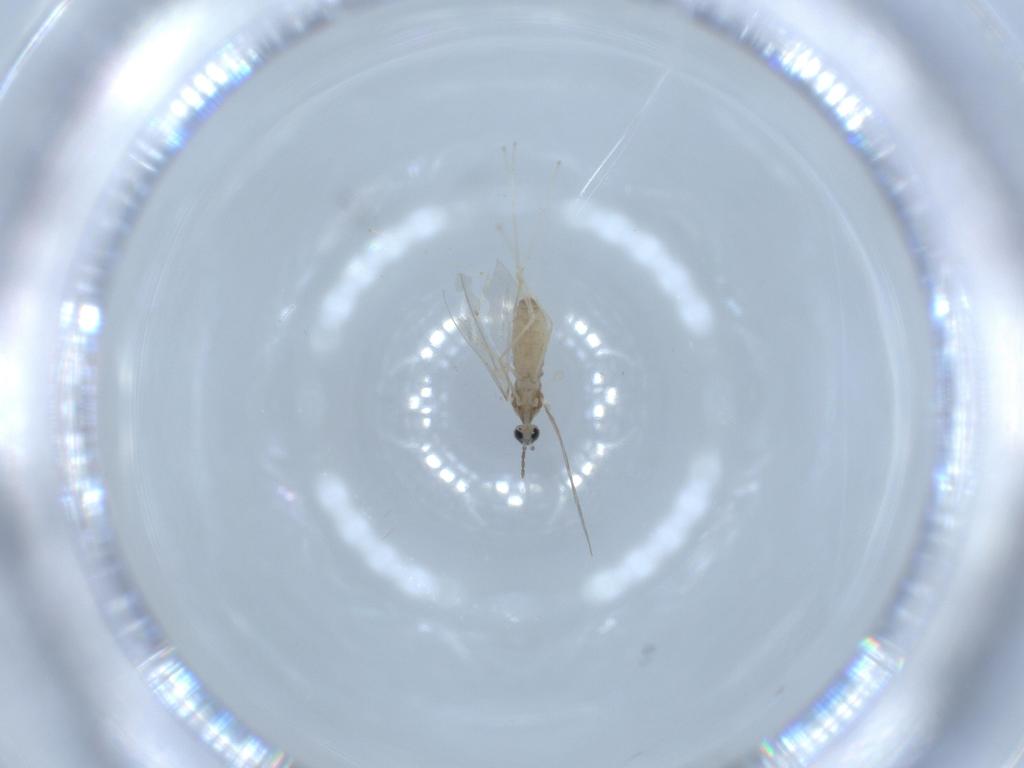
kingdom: Animalia
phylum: Arthropoda
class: Insecta
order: Diptera
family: Cecidomyiidae
